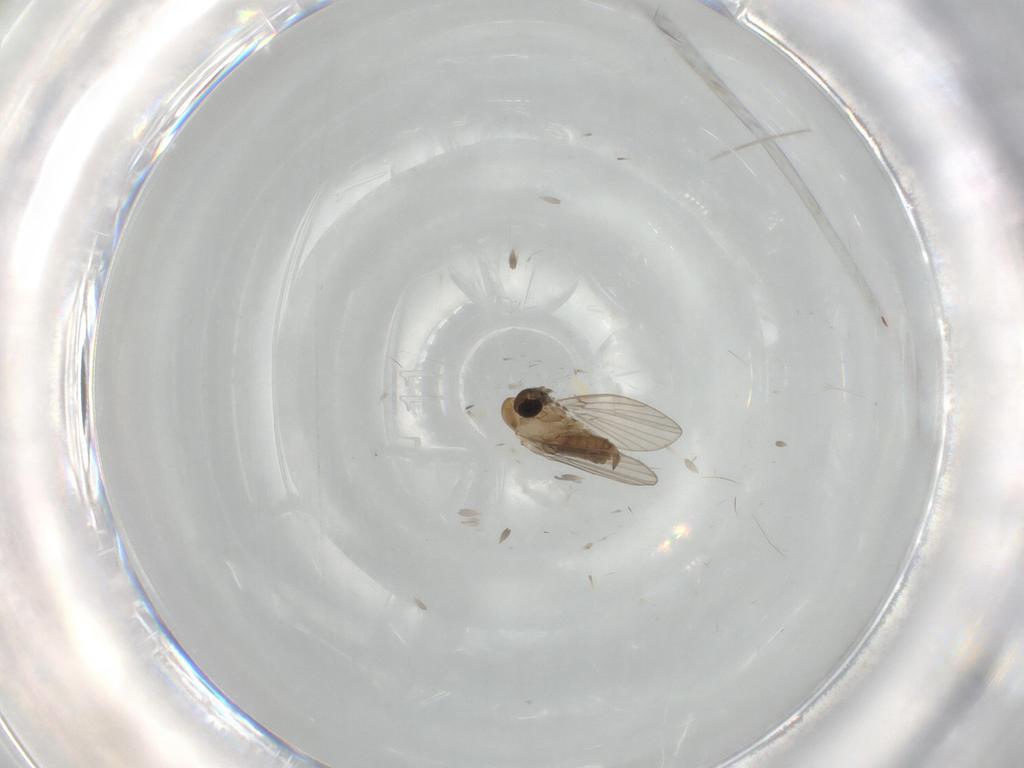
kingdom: Animalia
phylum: Arthropoda
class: Insecta
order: Diptera
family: Psychodidae
